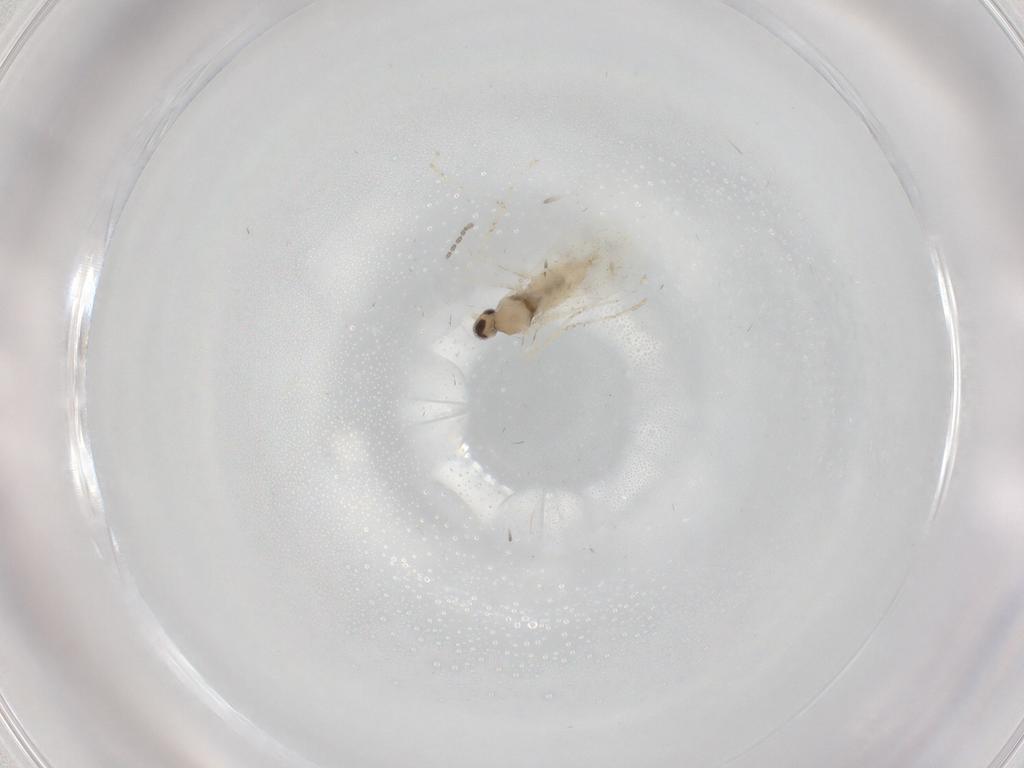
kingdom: Animalia
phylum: Arthropoda
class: Insecta
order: Diptera
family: Cecidomyiidae
